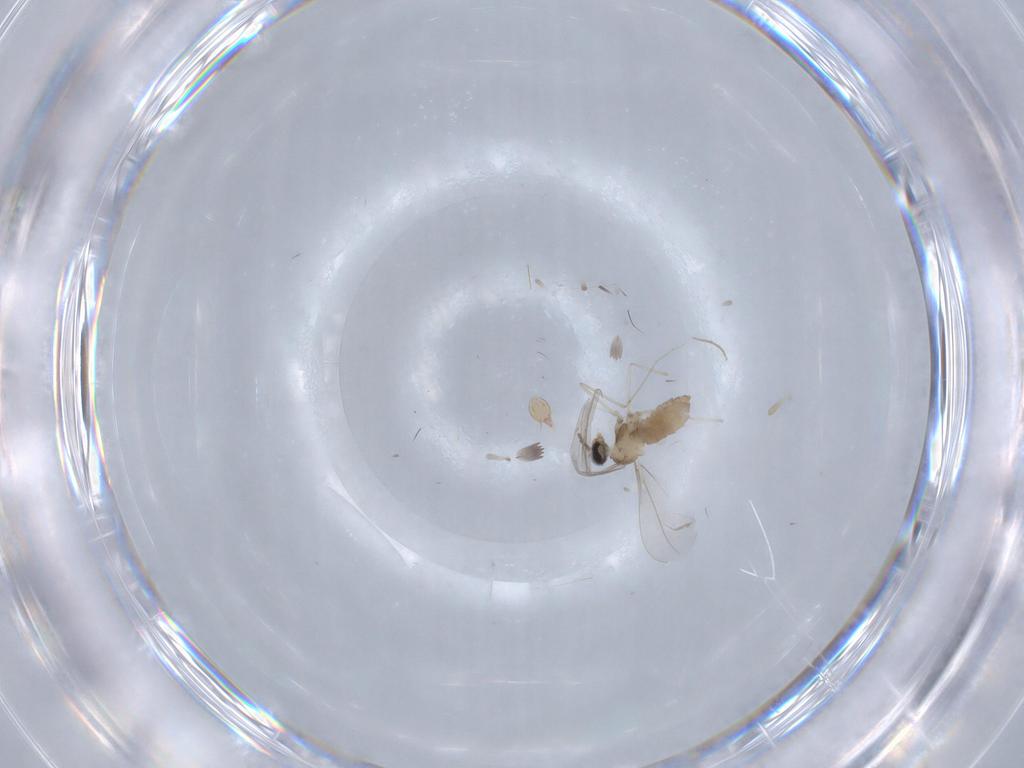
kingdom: Animalia
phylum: Arthropoda
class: Insecta
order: Diptera
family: Chironomidae
